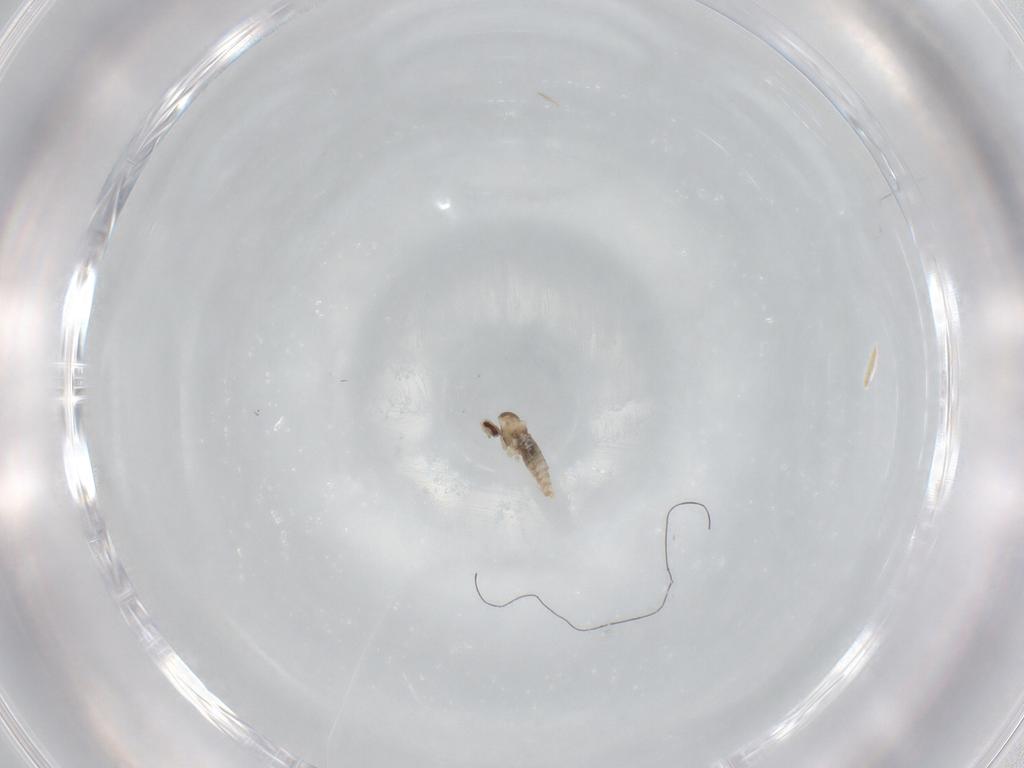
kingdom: Animalia
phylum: Arthropoda
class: Insecta
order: Diptera
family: Cecidomyiidae
